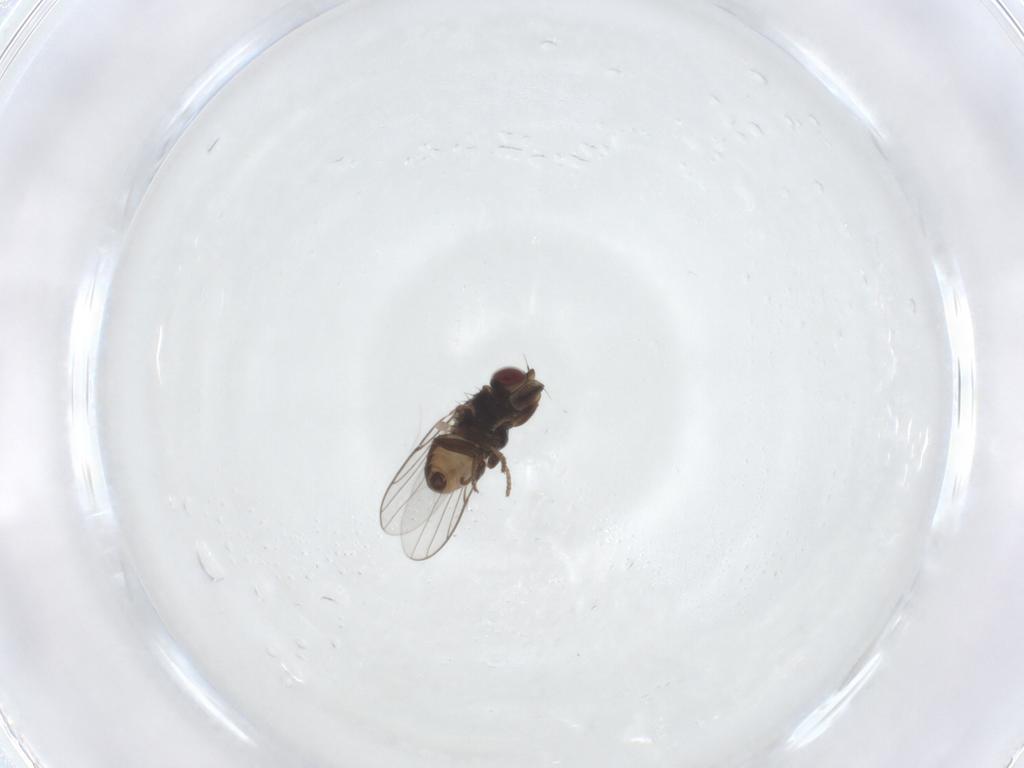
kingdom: Animalia
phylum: Arthropoda
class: Insecta
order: Diptera
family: Chloropidae
